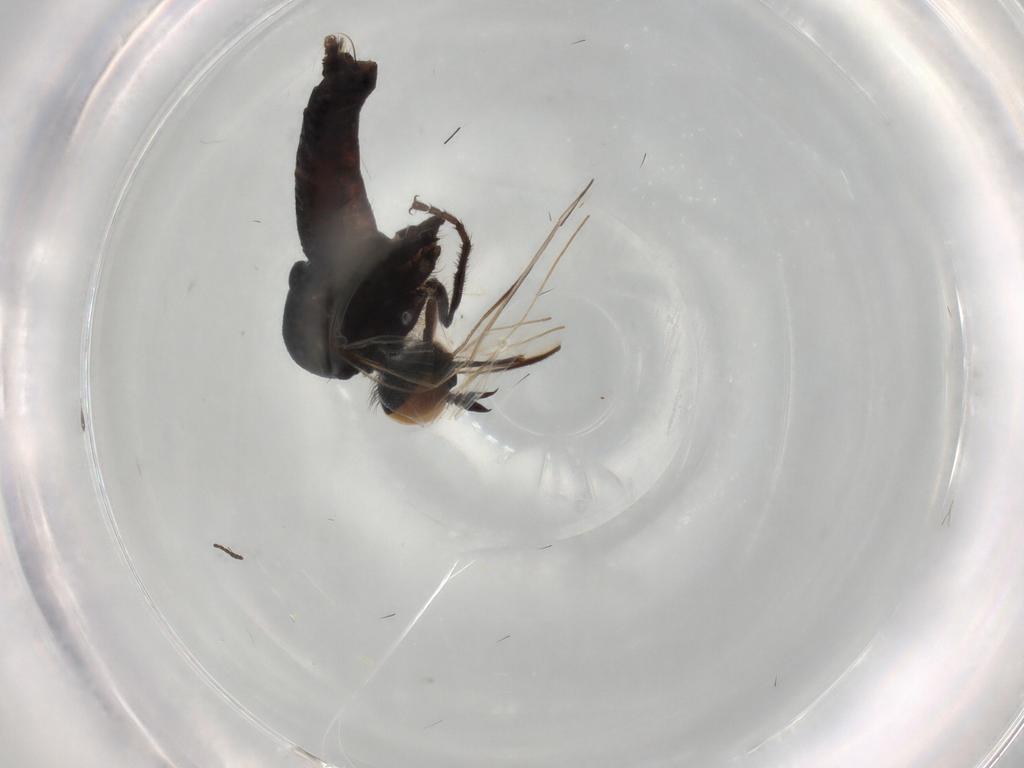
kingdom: Animalia
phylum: Arthropoda
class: Insecta
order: Diptera
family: Empididae
